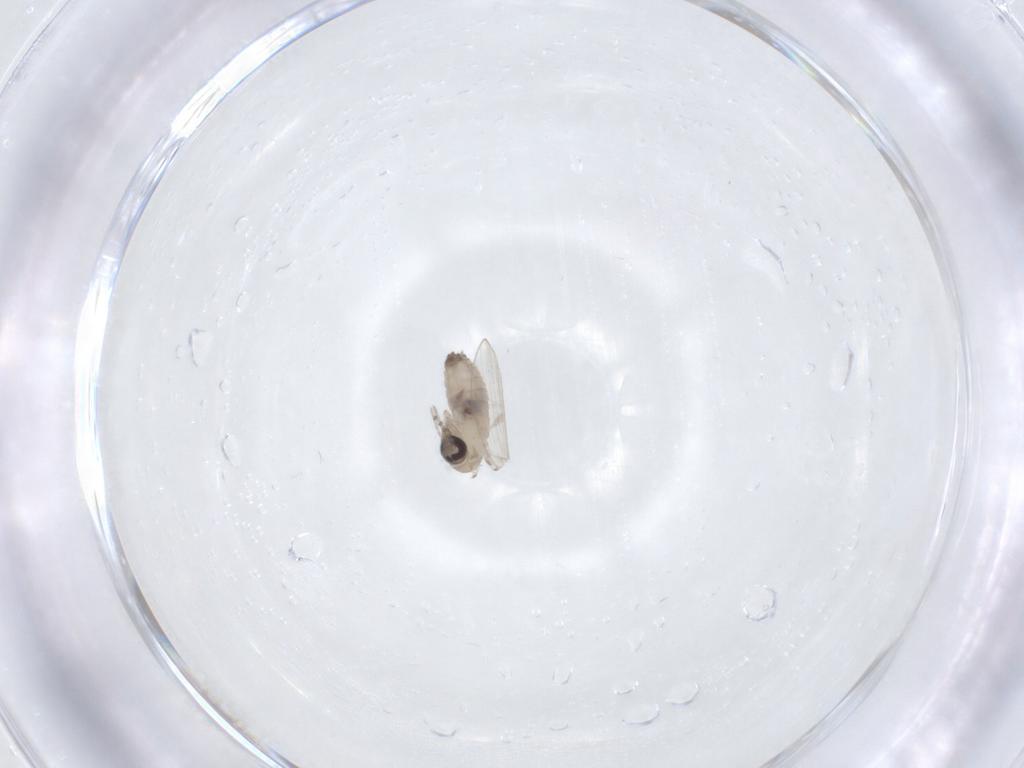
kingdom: Animalia
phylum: Arthropoda
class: Insecta
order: Diptera
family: Psychodidae
